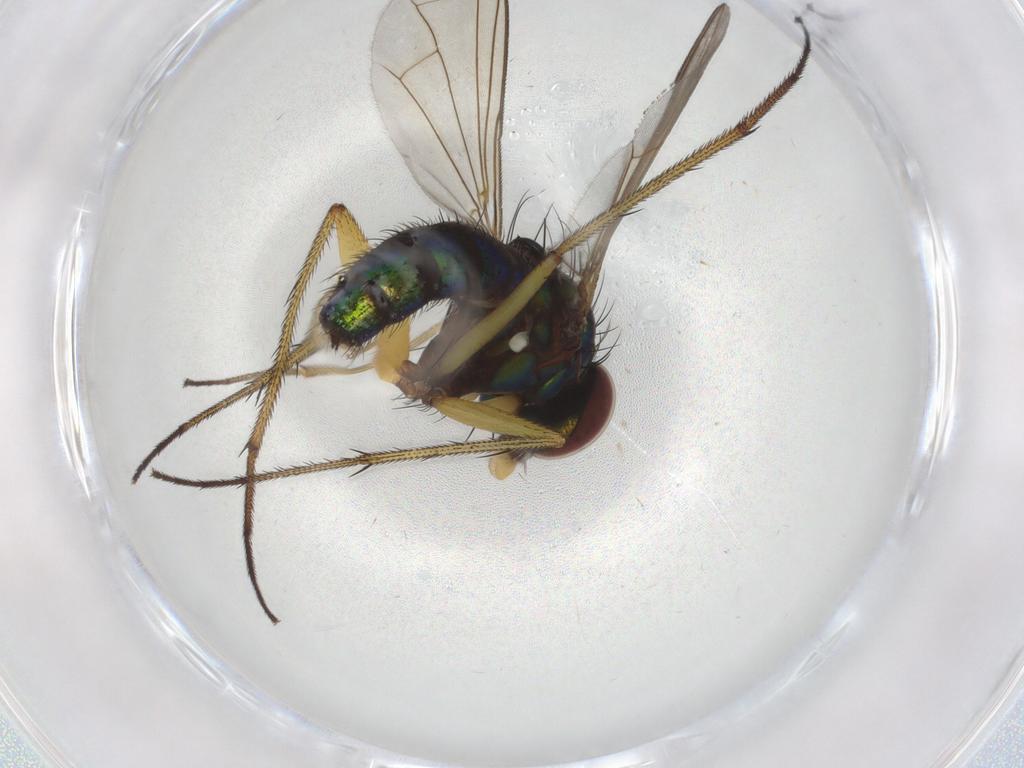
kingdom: Animalia
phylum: Arthropoda
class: Insecta
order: Diptera
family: Dolichopodidae
